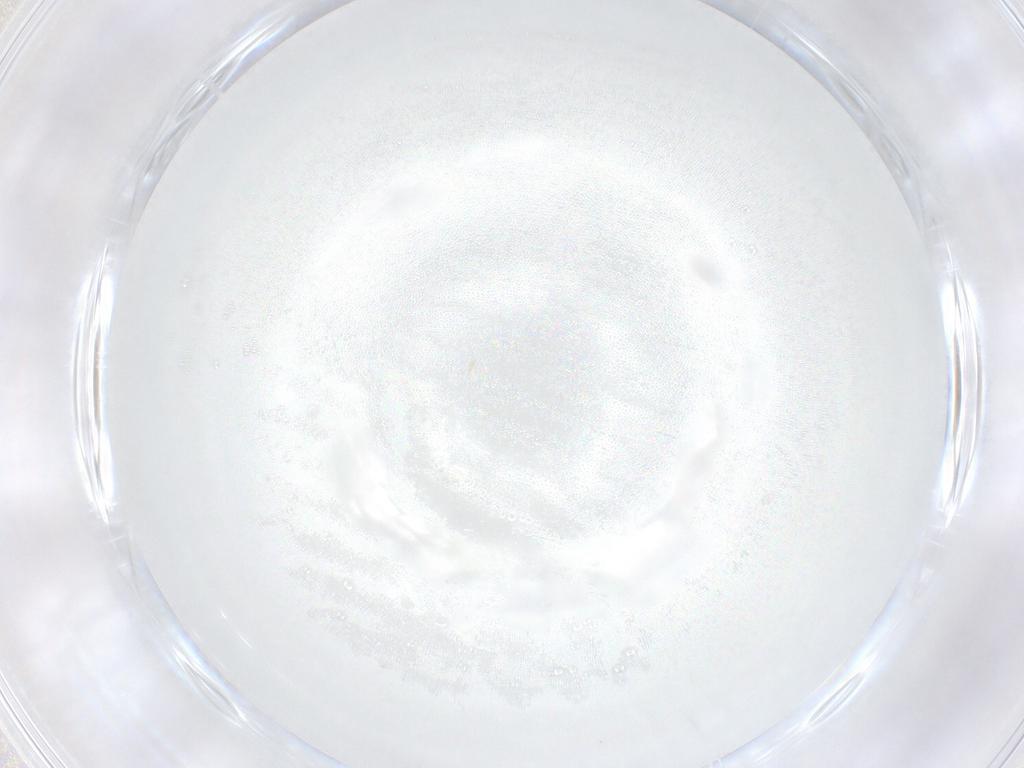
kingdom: Animalia
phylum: Arthropoda
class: Insecta
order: Diptera
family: Cecidomyiidae
